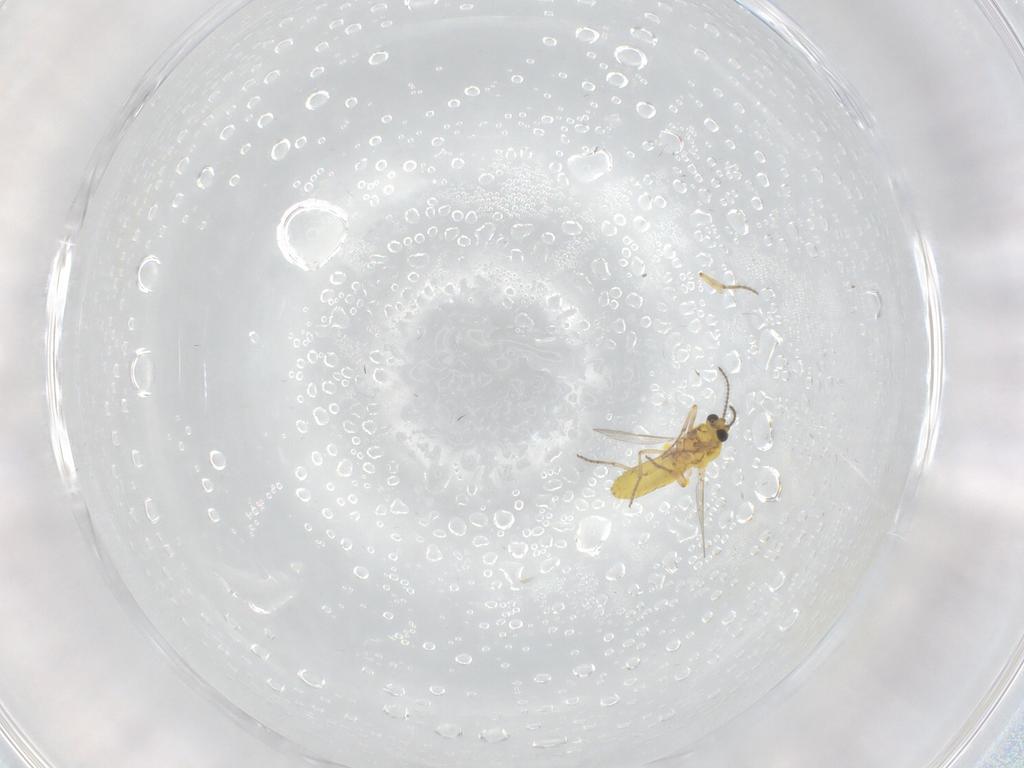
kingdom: Animalia
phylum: Arthropoda
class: Insecta
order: Diptera
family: Ceratopogonidae
